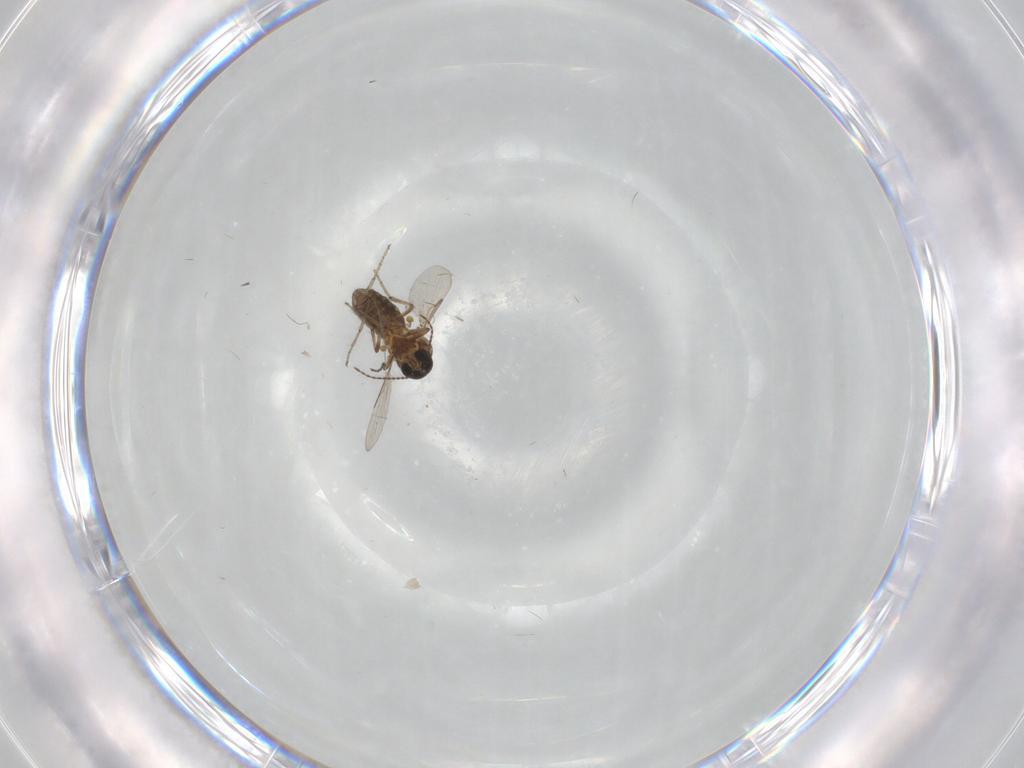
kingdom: Animalia
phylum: Arthropoda
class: Insecta
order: Diptera
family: Ceratopogonidae
